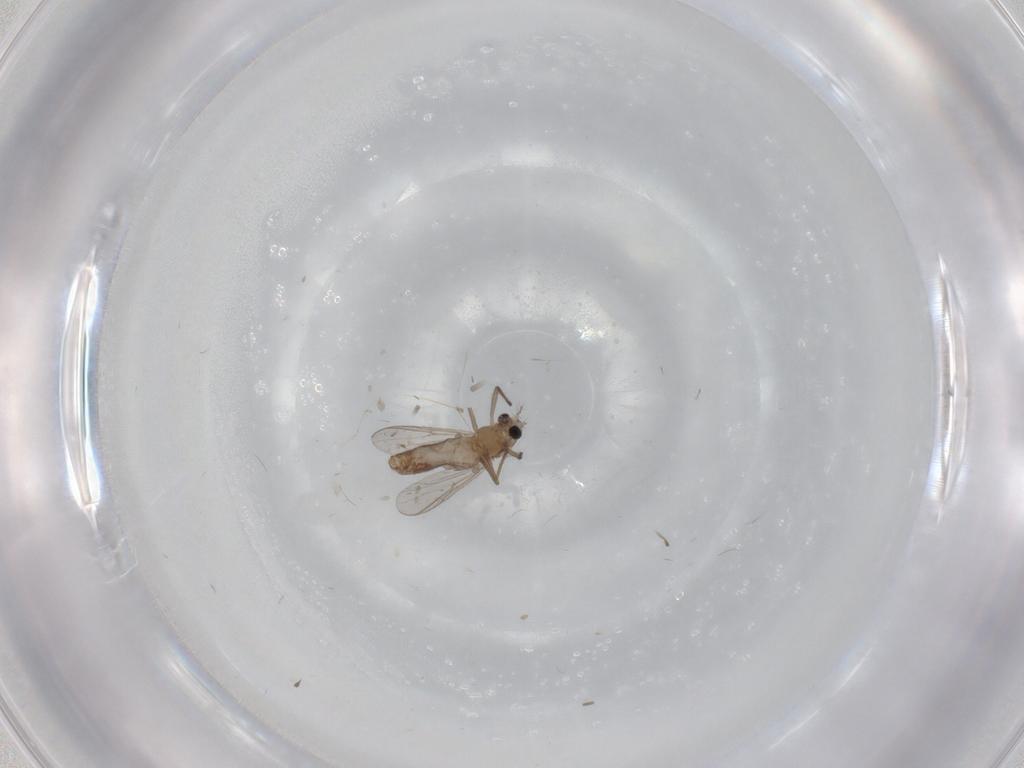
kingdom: Animalia
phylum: Arthropoda
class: Insecta
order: Diptera
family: Chironomidae
